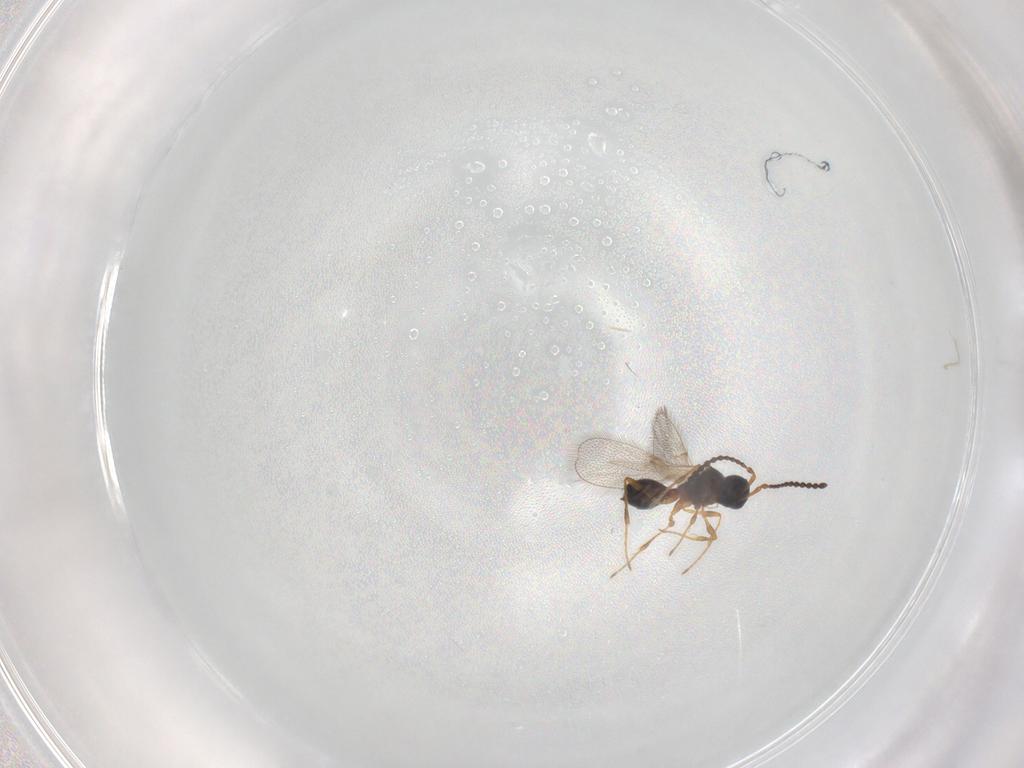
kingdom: Animalia
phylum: Arthropoda
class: Insecta
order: Hymenoptera
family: Diapriidae
